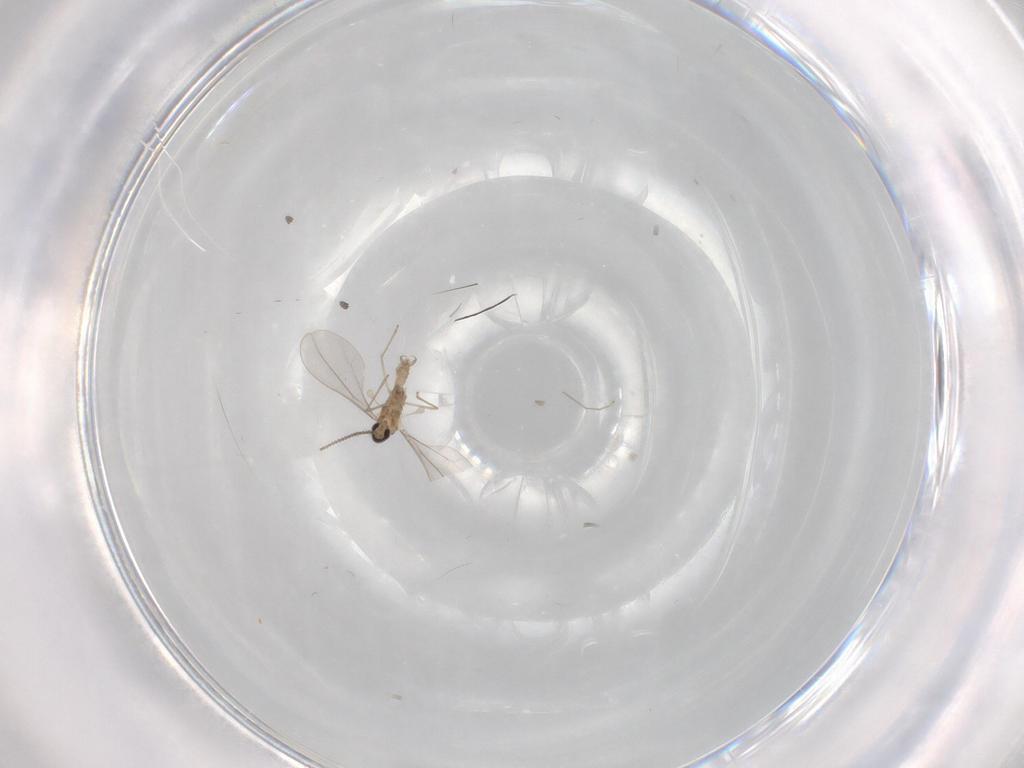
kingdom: Animalia
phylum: Arthropoda
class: Insecta
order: Diptera
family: Cecidomyiidae
